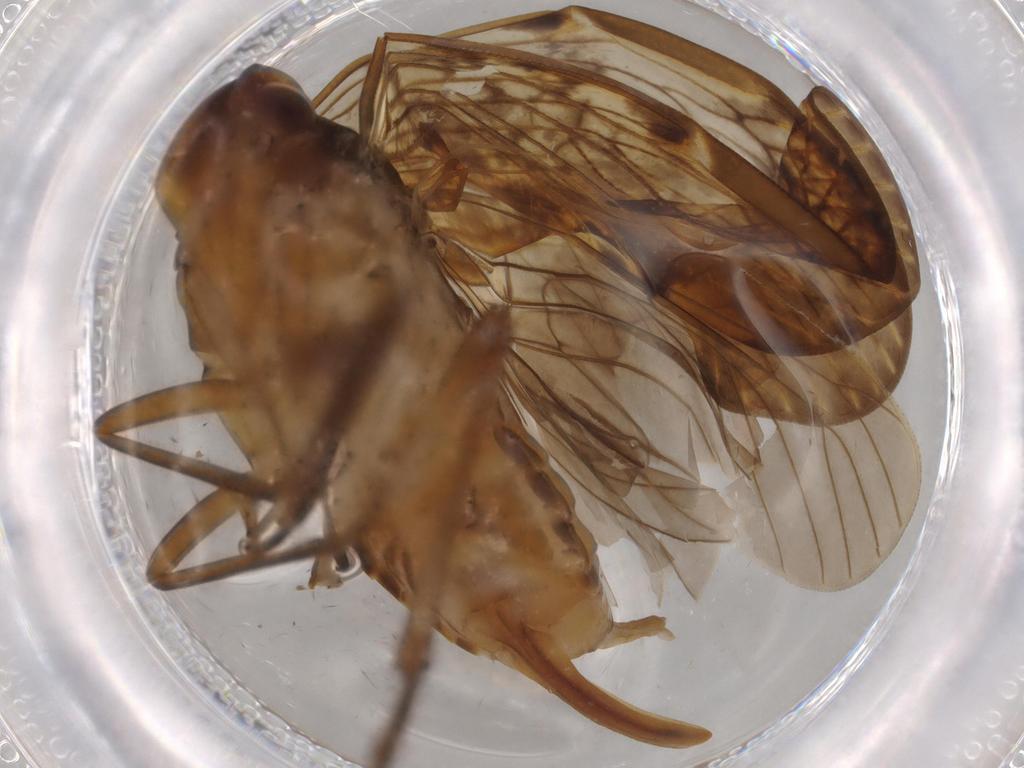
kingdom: Animalia
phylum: Arthropoda
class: Insecta
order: Hemiptera
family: Cixiidae
